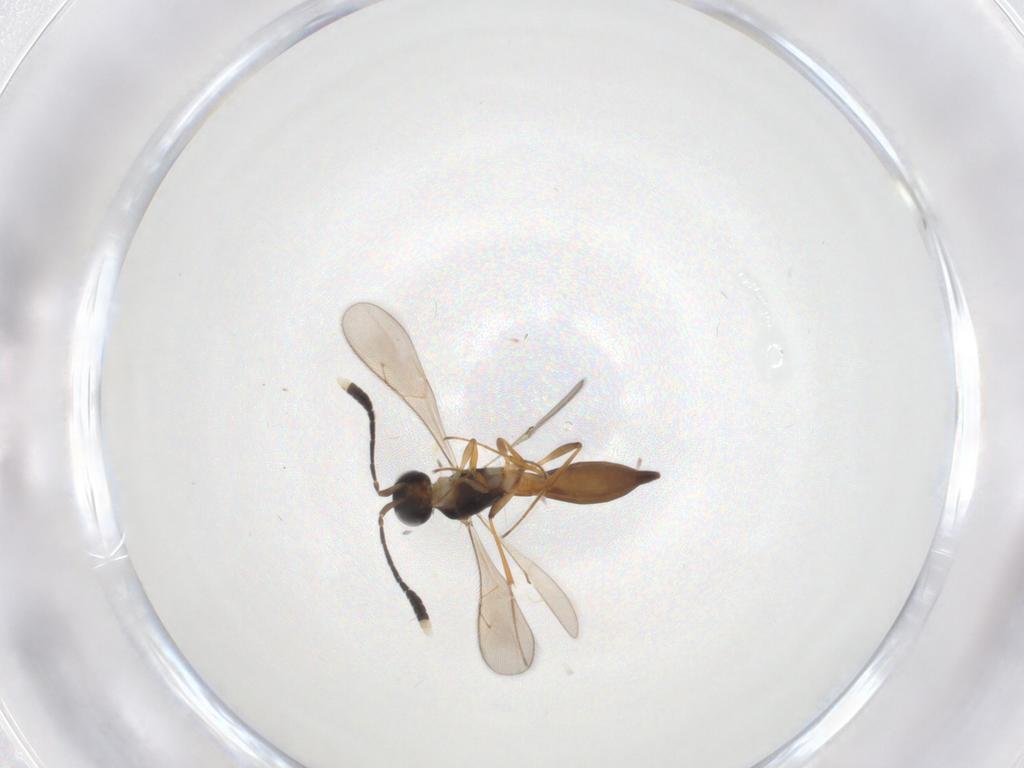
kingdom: Animalia
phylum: Arthropoda
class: Insecta
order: Hymenoptera
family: Scelionidae
